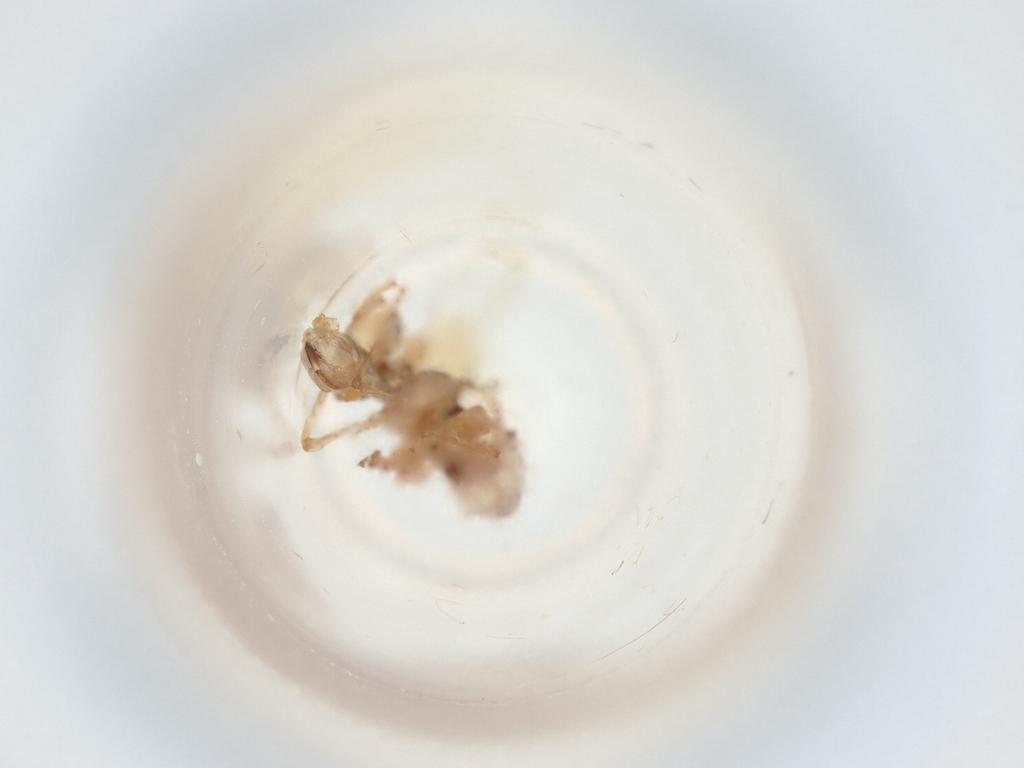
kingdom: Animalia
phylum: Arthropoda
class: Insecta
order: Hymenoptera
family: Dryinidae
